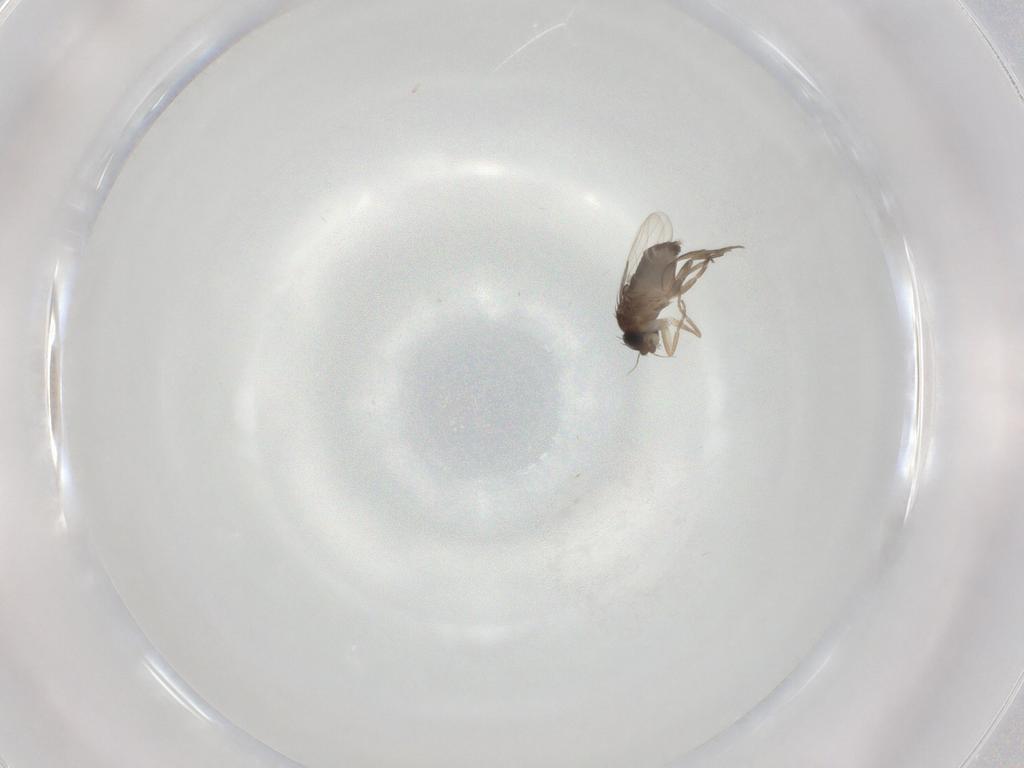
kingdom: Animalia
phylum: Arthropoda
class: Insecta
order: Diptera
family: Phoridae
